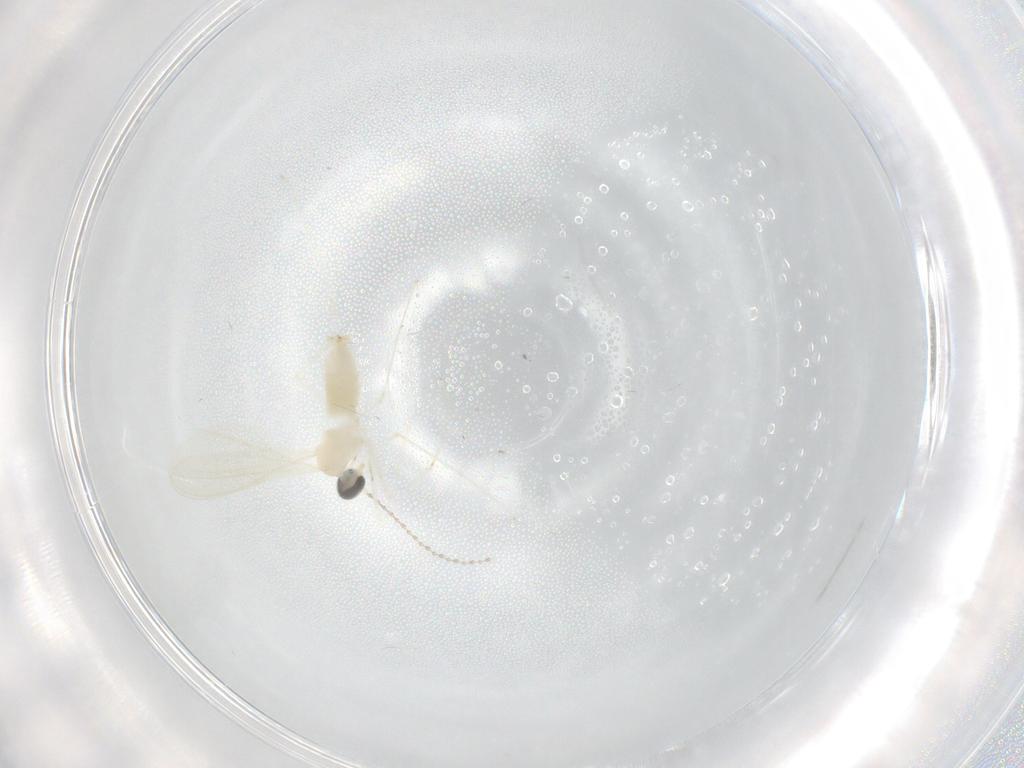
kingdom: Animalia
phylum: Arthropoda
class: Insecta
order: Diptera
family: Cecidomyiidae
